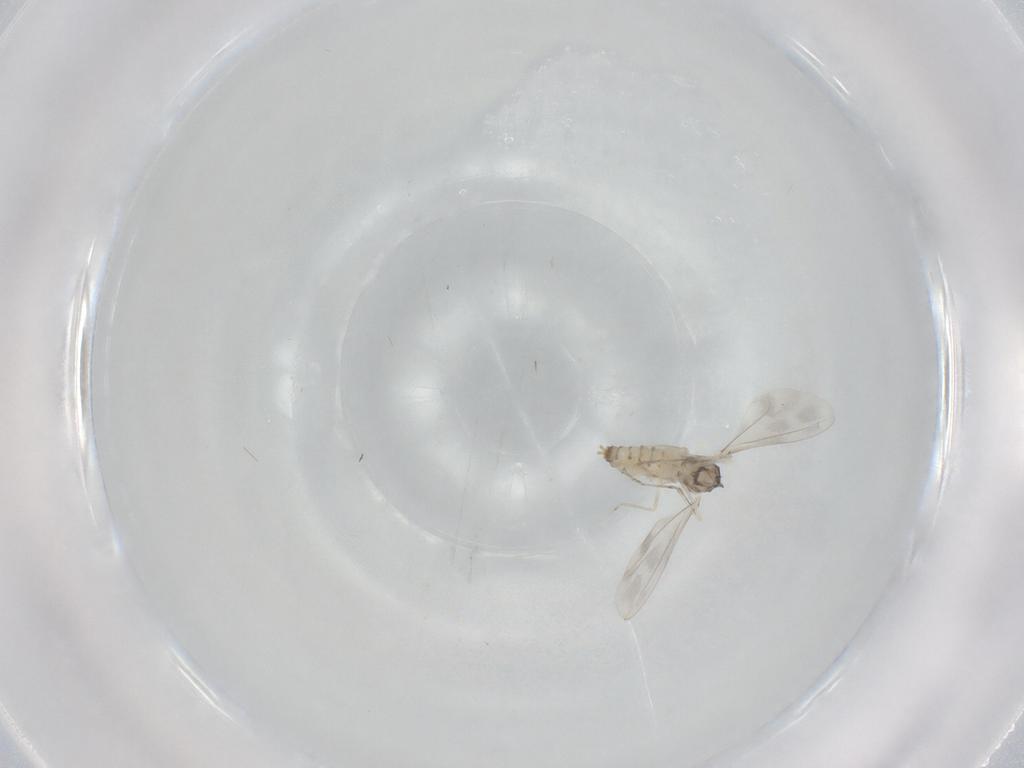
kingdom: Animalia
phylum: Arthropoda
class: Insecta
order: Diptera
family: Cecidomyiidae
